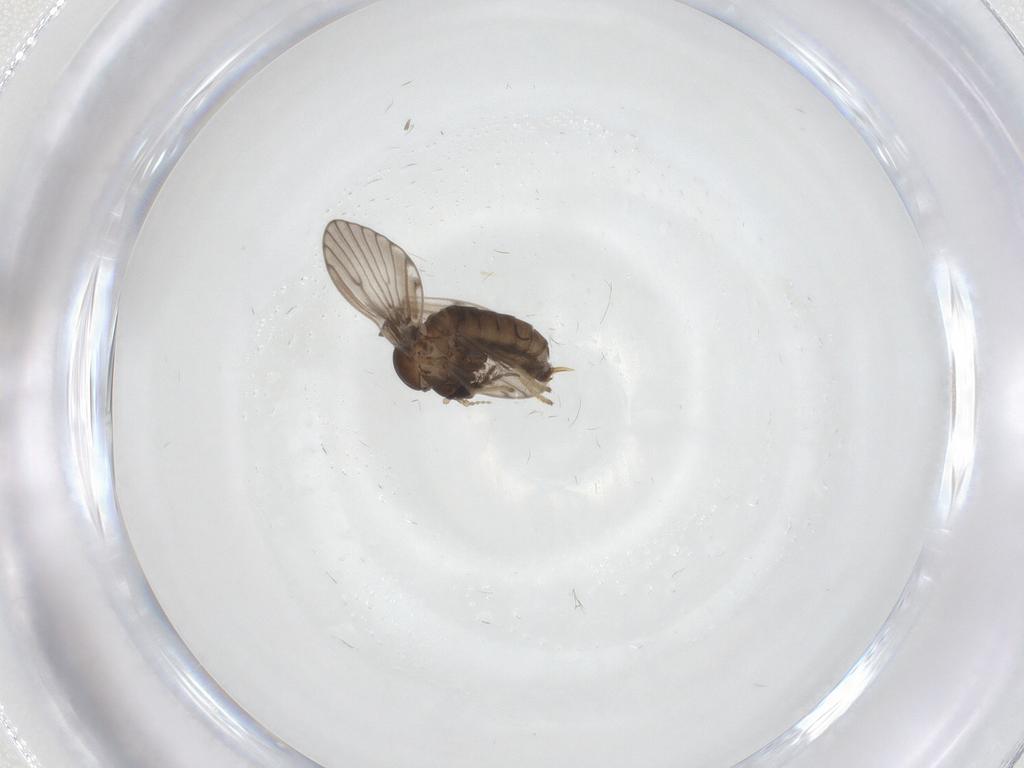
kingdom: Animalia
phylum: Arthropoda
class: Insecta
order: Diptera
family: Psychodidae
